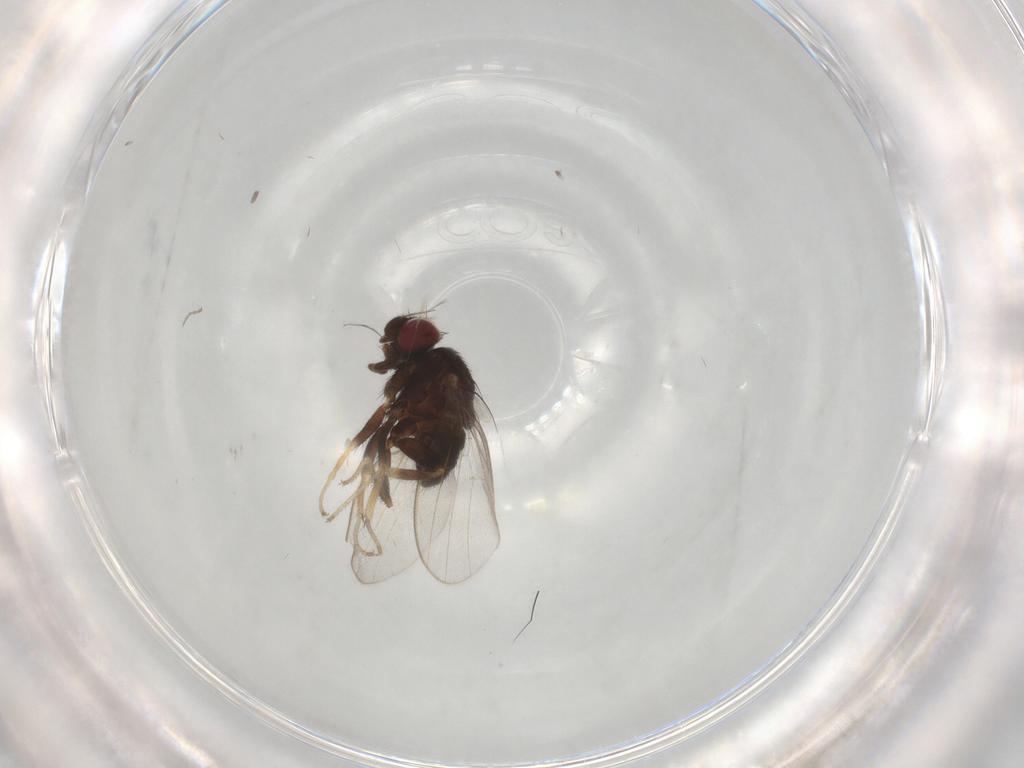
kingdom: Animalia
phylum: Arthropoda
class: Insecta
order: Diptera
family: Milichiidae
